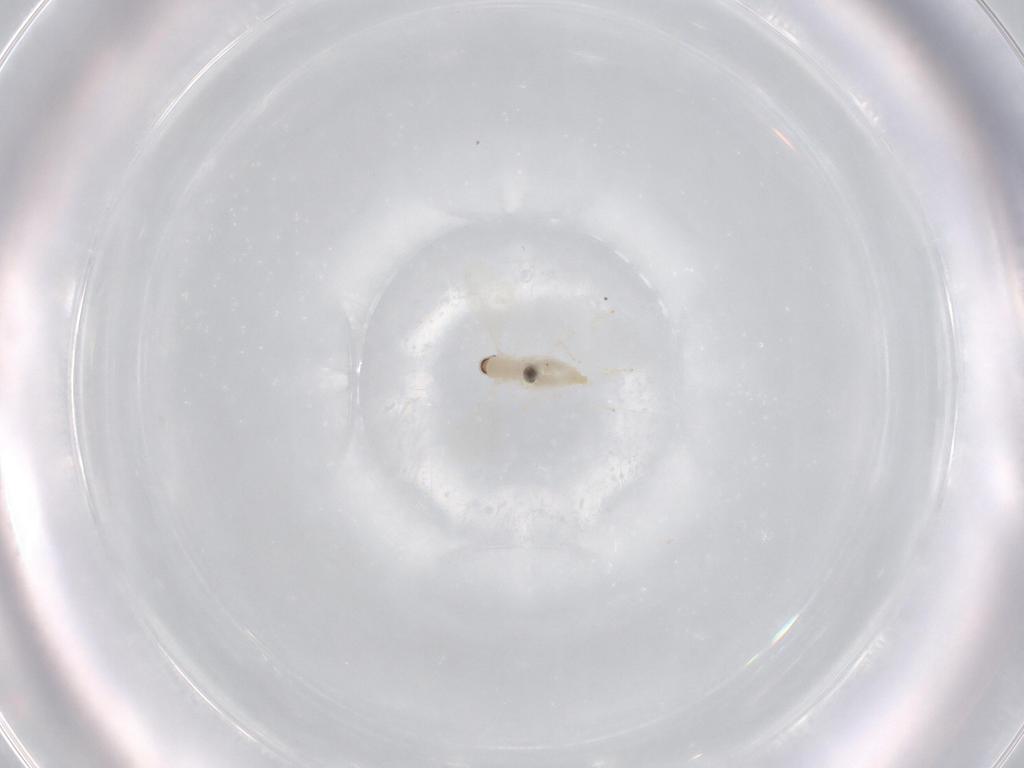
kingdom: Animalia
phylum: Arthropoda
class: Insecta
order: Diptera
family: Cecidomyiidae
